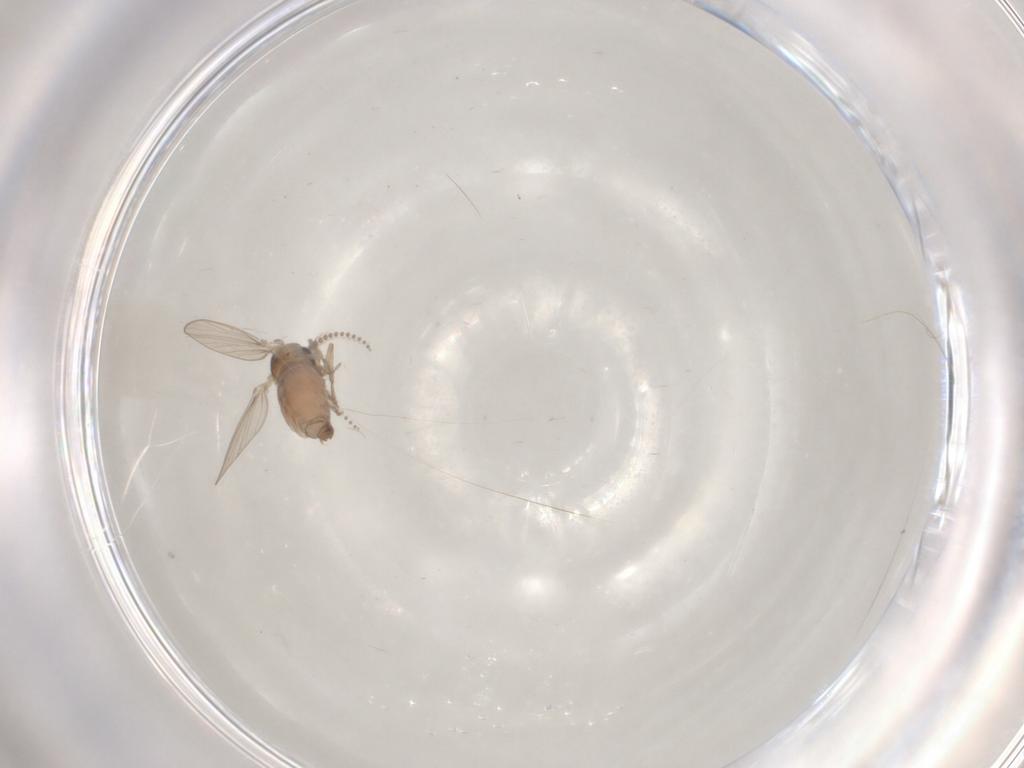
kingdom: Animalia
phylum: Arthropoda
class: Insecta
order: Diptera
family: Psychodidae
